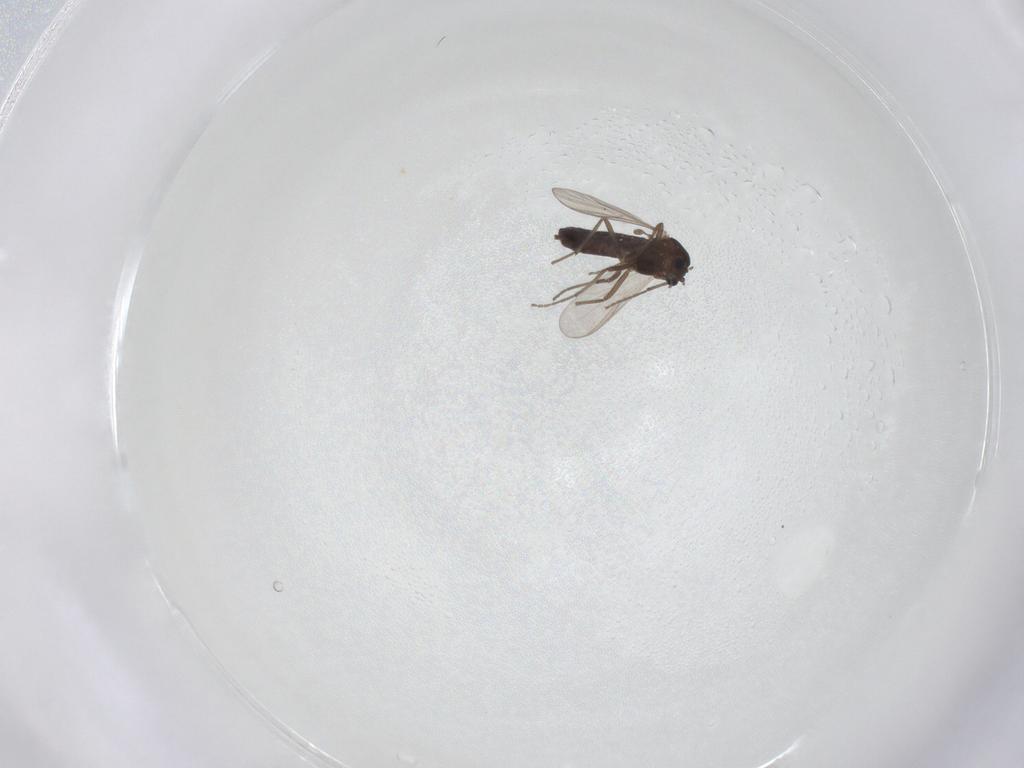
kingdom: Animalia
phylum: Arthropoda
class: Insecta
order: Diptera
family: Chironomidae
